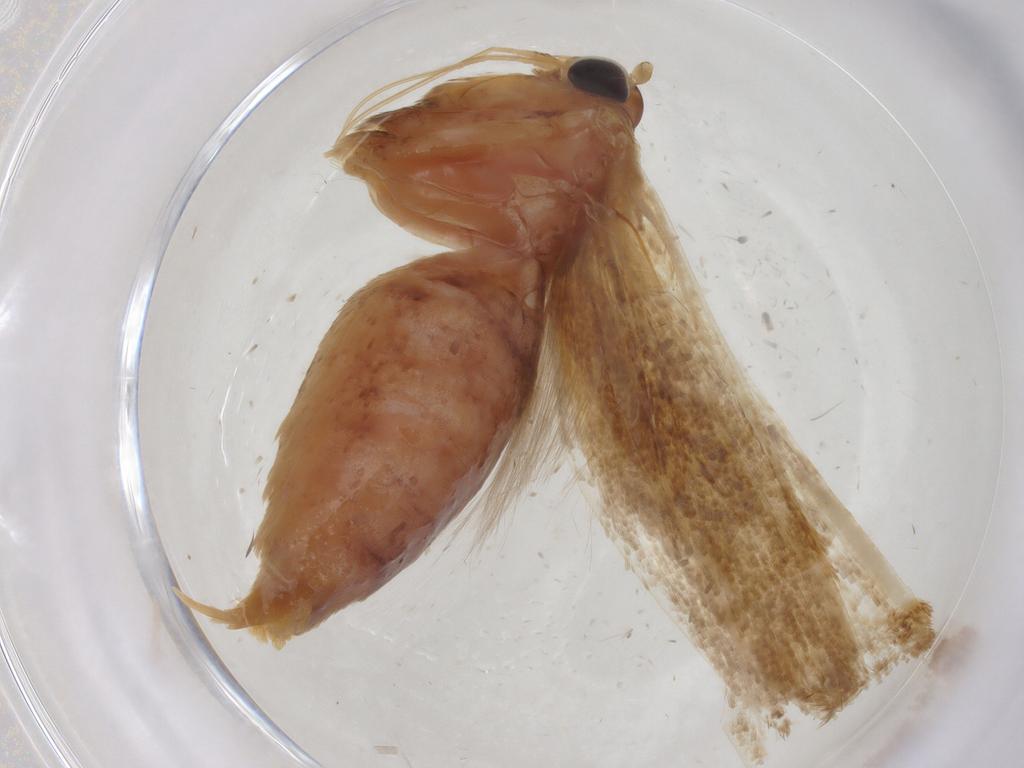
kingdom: Animalia
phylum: Arthropoda
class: Insecta
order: Lepidoptera
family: Blastobasidae
